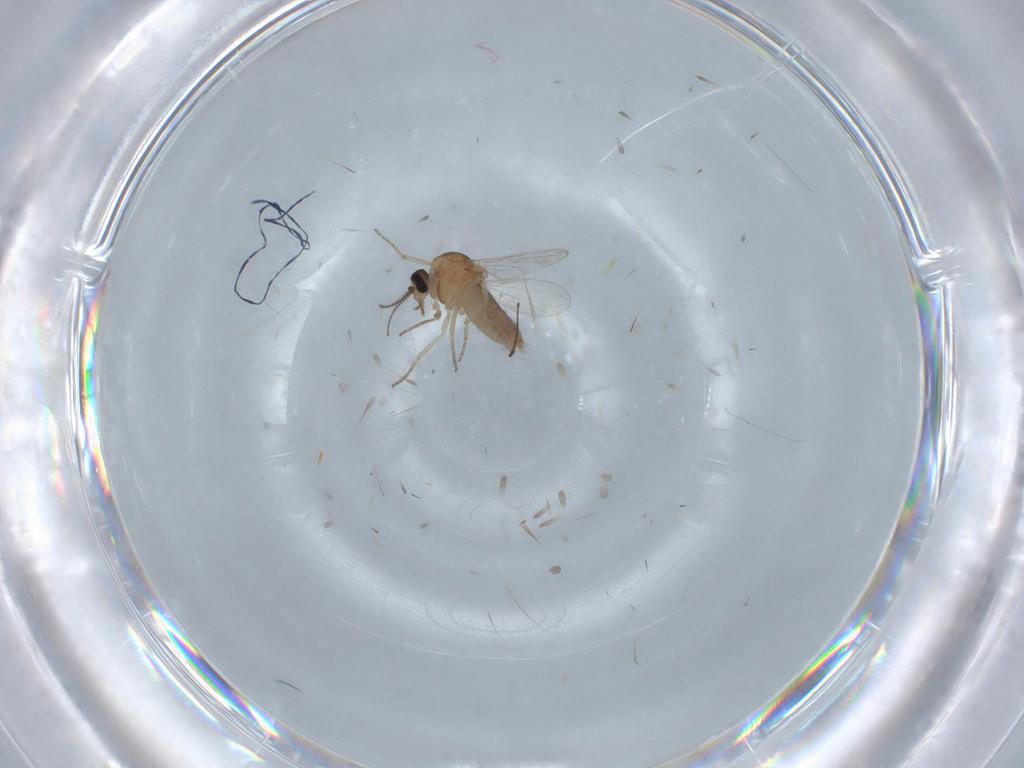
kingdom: Animalia
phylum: Arthropoda
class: Insecta
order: Diptera
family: Ceratopogonidae
